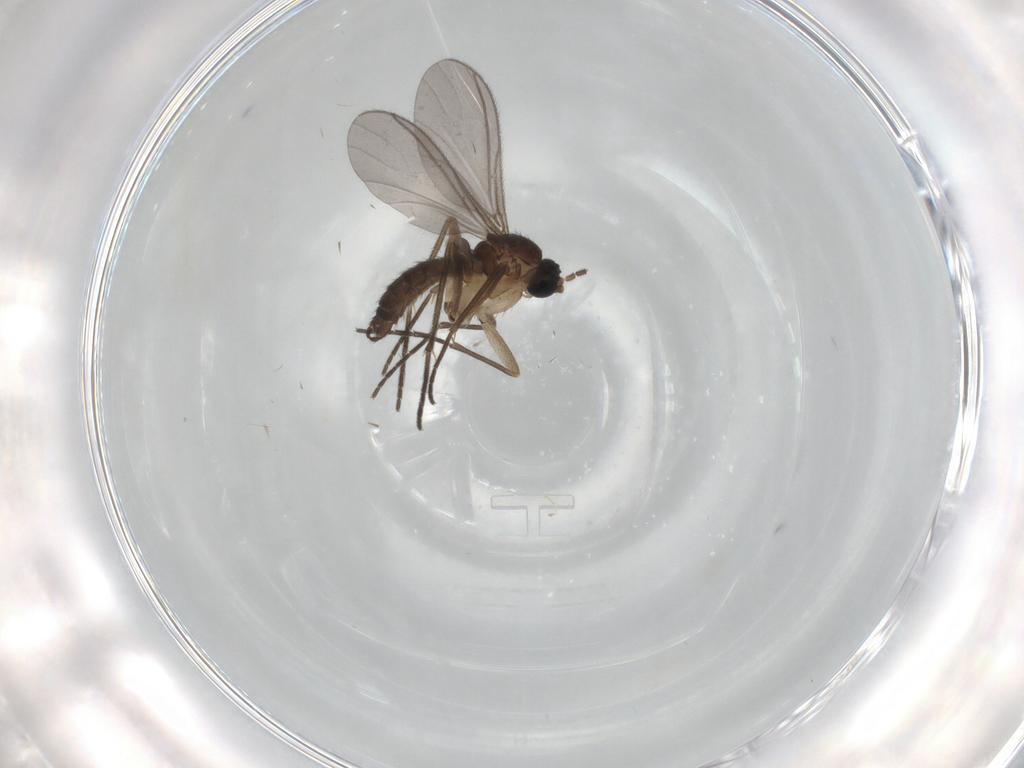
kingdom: Animalia
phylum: Arthropoda
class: Insecta
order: Diptera
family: Sciaridae
